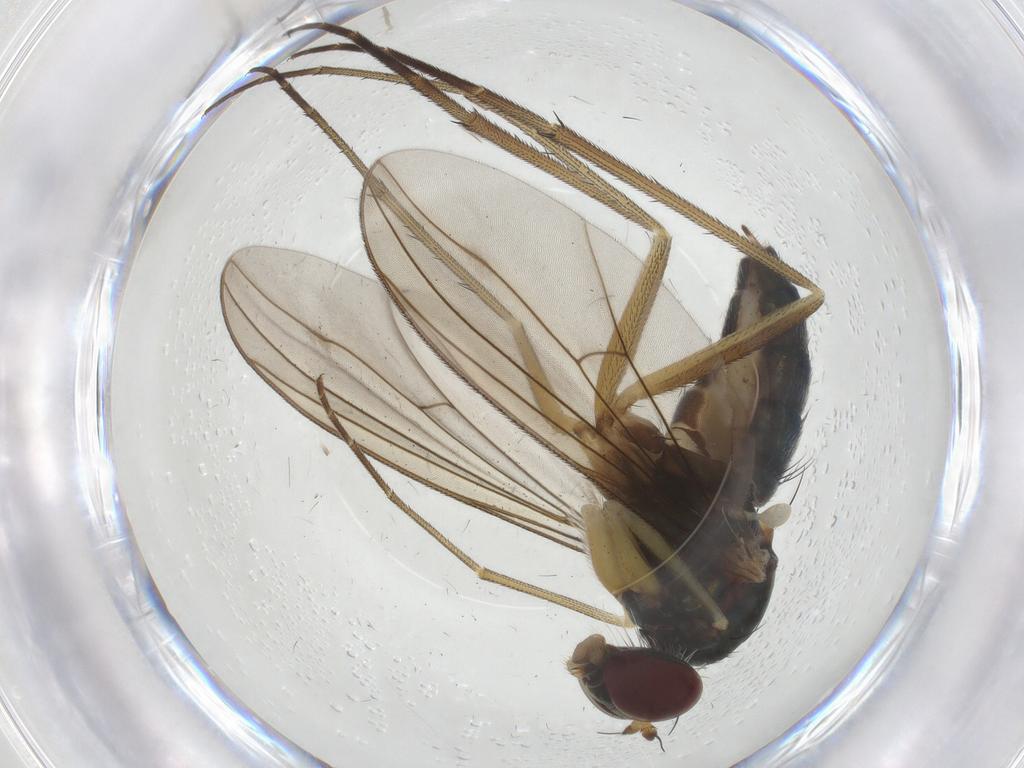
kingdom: Animalia
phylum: Arthropoda
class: Insecta
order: Diptera
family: Dolichopodidae
